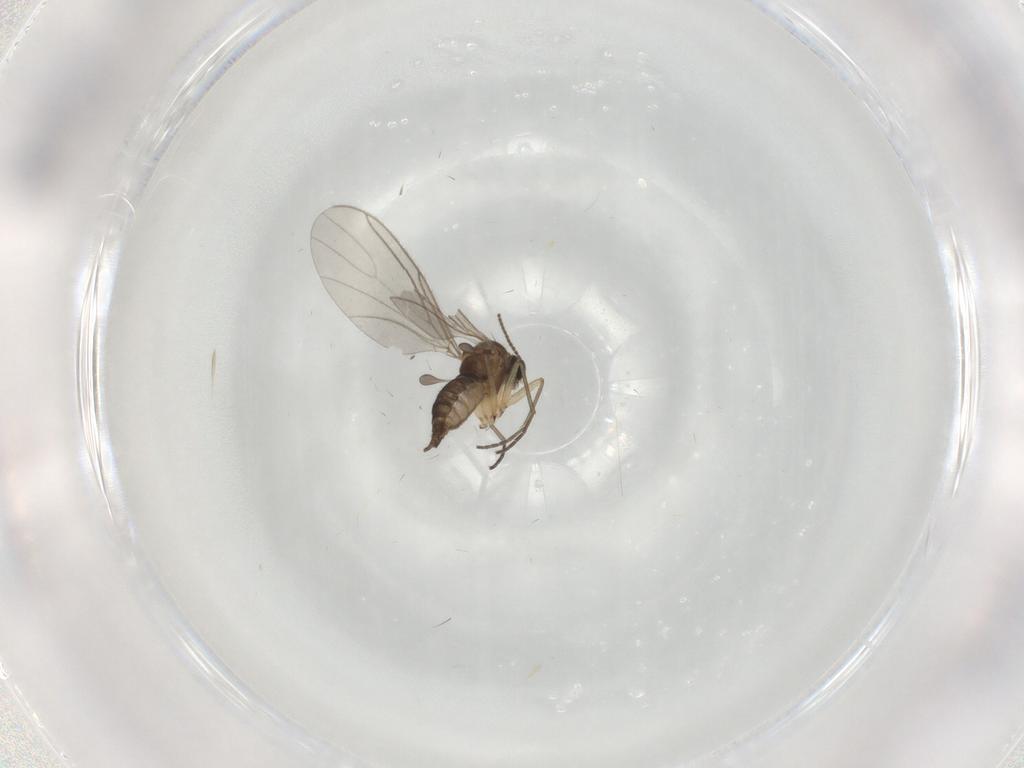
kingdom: Animalia
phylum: Arthropoda
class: Insecta
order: Diptera
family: Sciaridae
